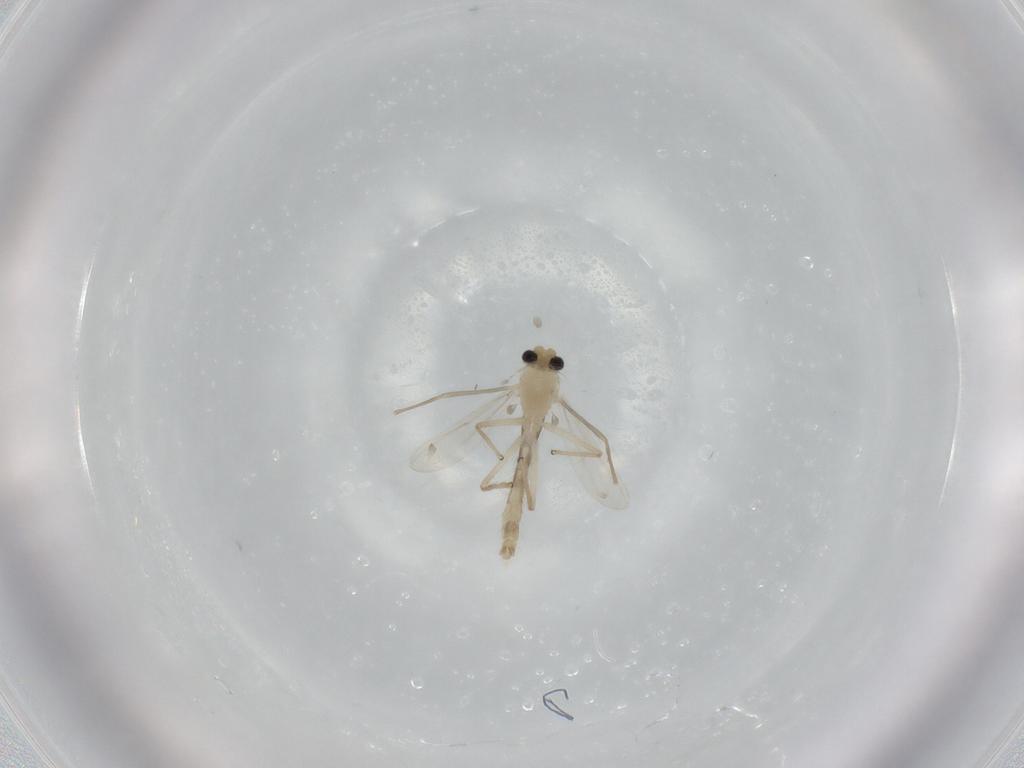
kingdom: Animalia
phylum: Arthropoda
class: Insecta
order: Diptera
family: Chironomidae
